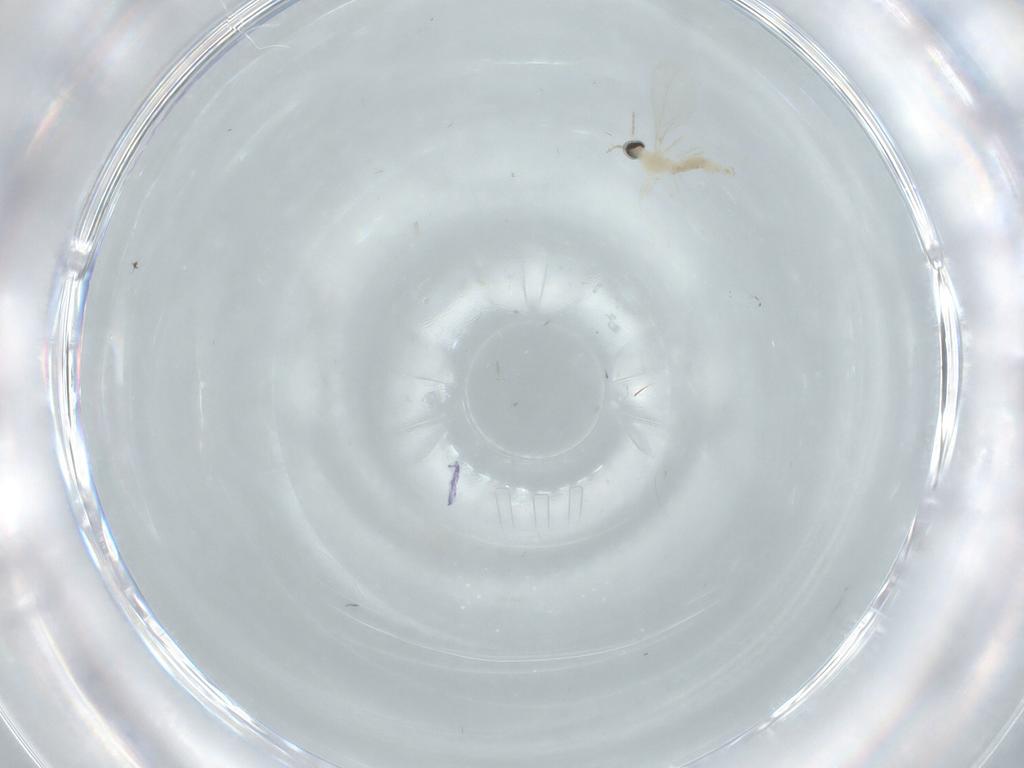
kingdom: Animalia
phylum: Arthropoda
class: Insecta
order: Diptera
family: Cecidomyiidae
